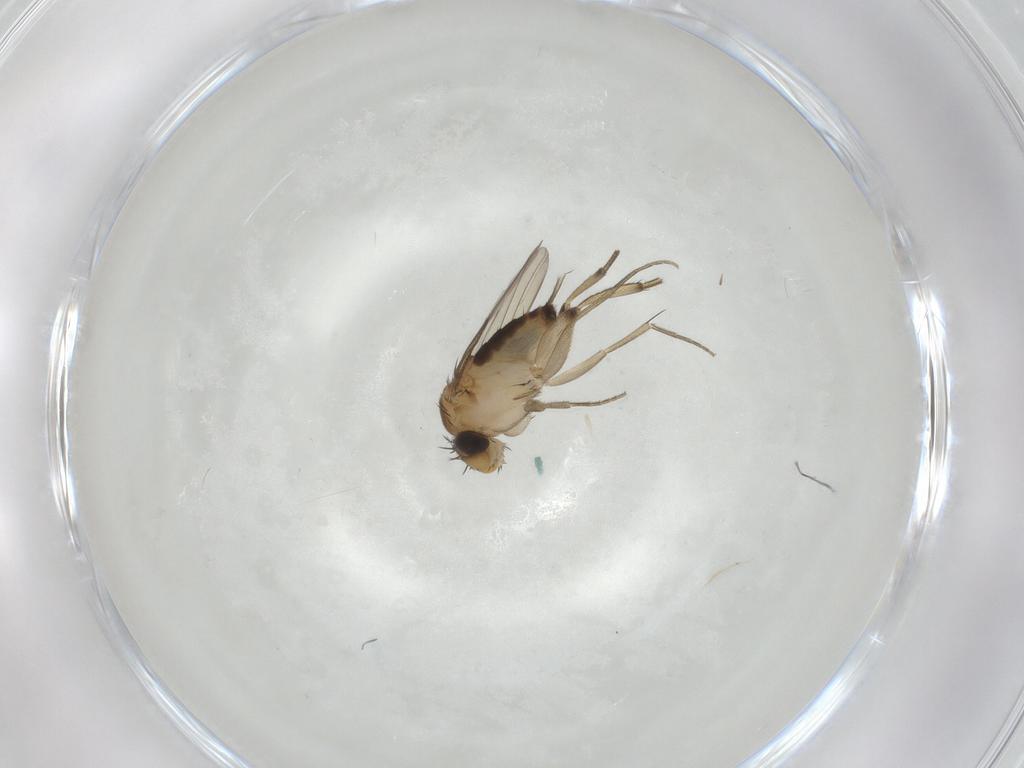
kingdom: Animalia
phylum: Arthropoda
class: Insecta
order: Diptera
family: Phoridae
